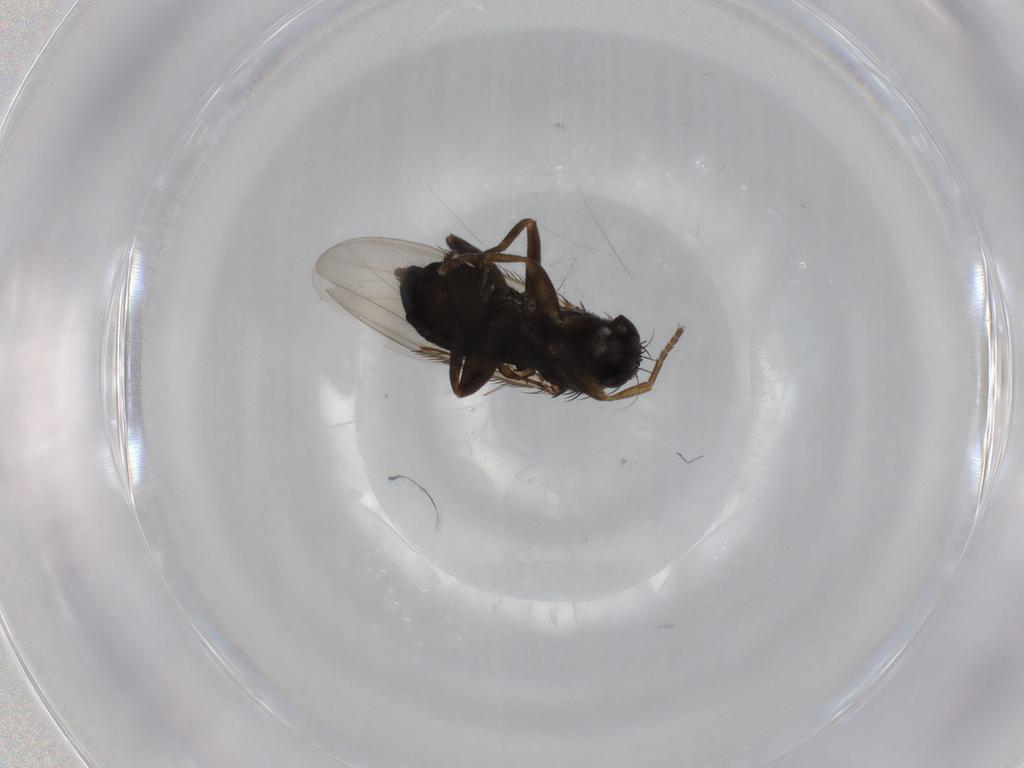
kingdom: Animalia
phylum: Arthropoda
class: Insecta
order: Diptera
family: Phoridae
